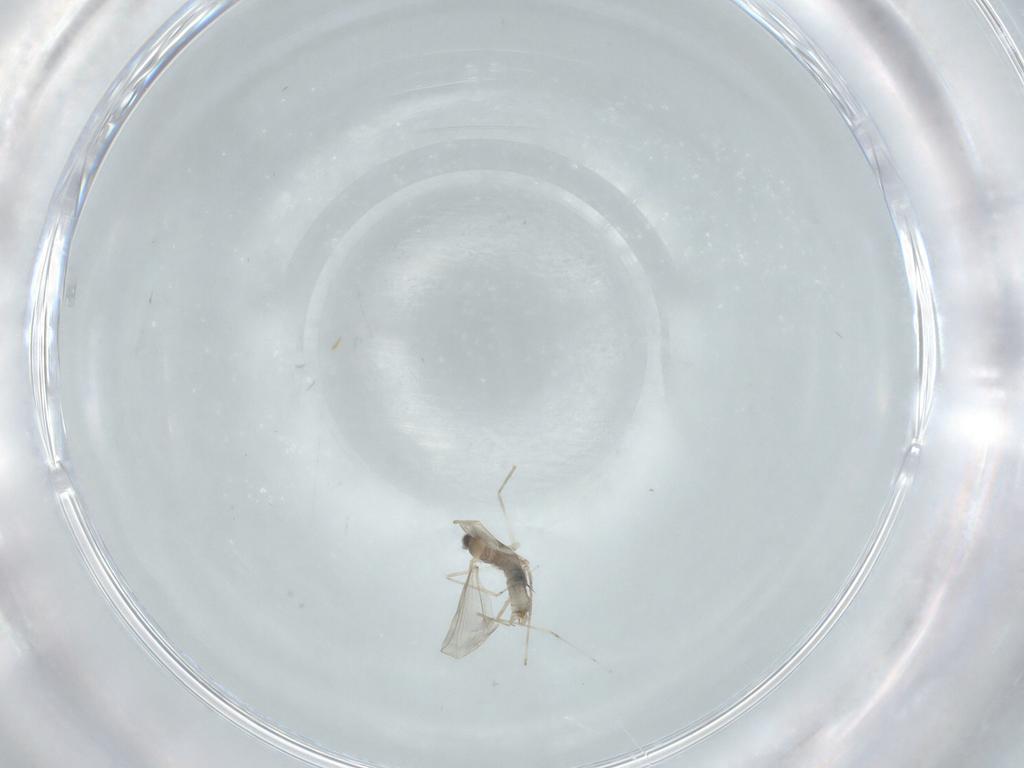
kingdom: Animalia
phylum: Arthropoda
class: Insecta
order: Diptera
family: Cecidomyiidae
